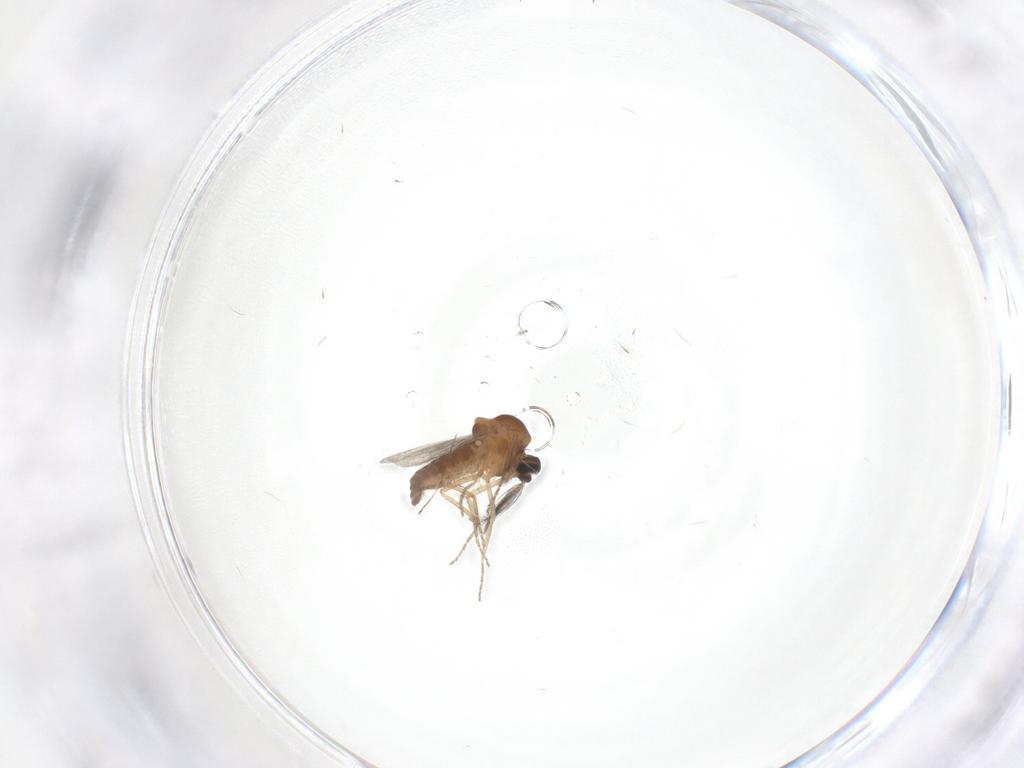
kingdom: Animalia
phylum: Arthropoda
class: Insecta
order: Diptera
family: Ceratopogonidae
